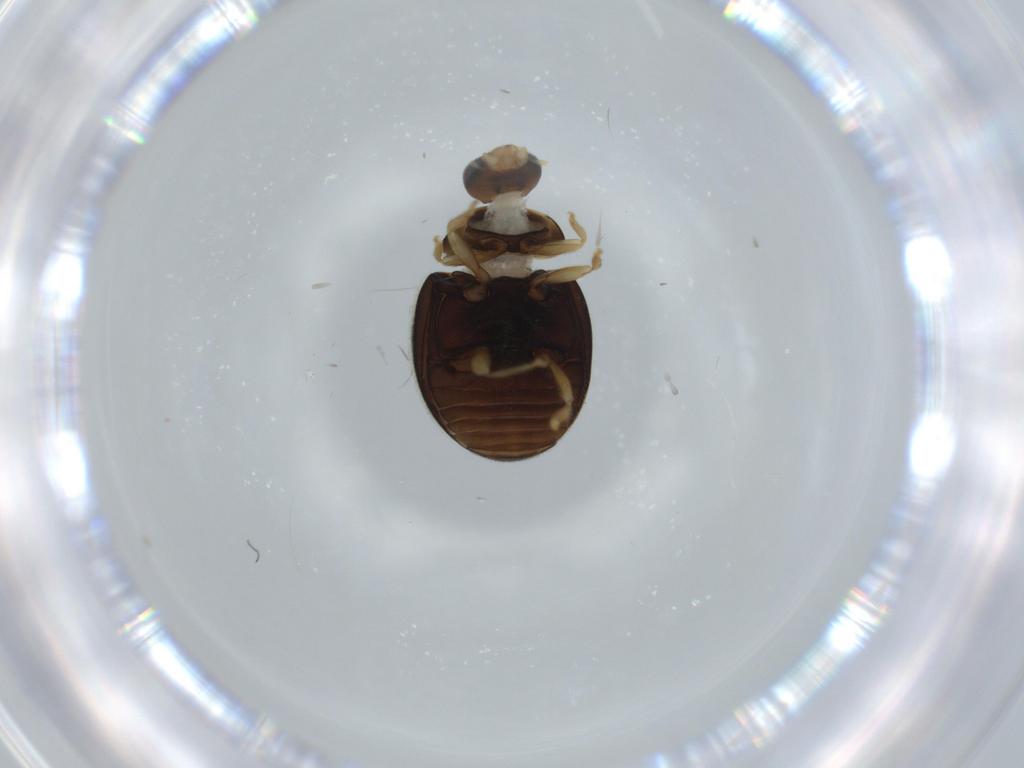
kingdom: Animalia
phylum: Arthropoda
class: Insecta
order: Coleoptera
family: Coccinellidae
